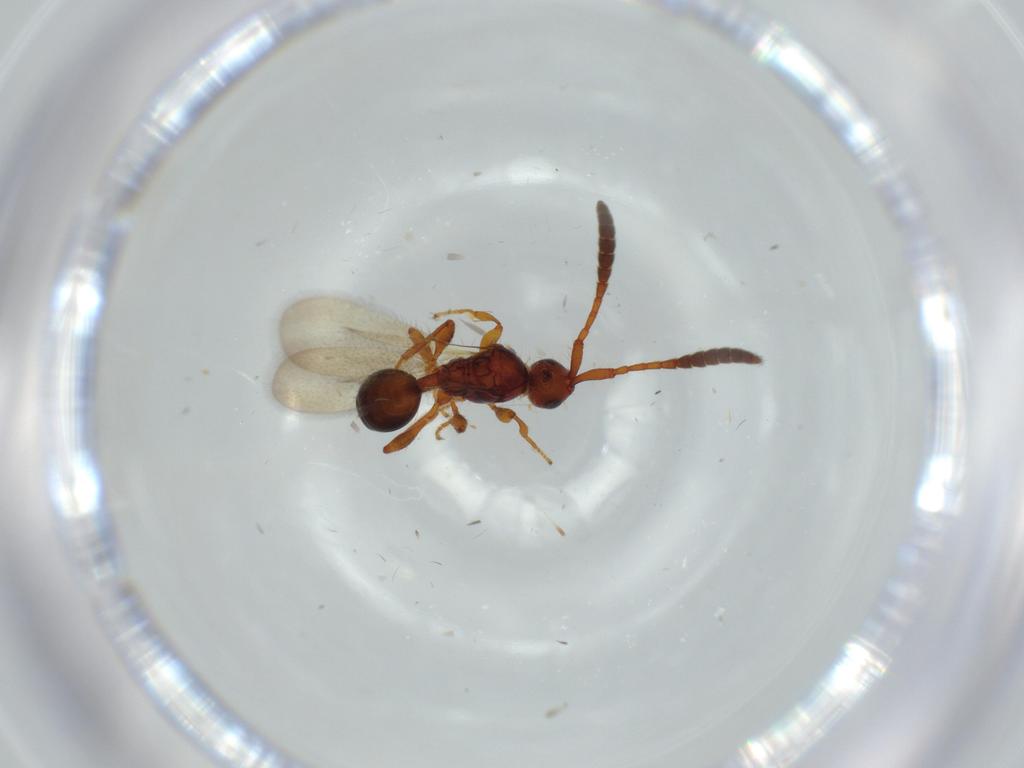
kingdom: Animalia
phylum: Arthropoda
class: Insecta
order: Hymenoptera
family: Diapriidae
